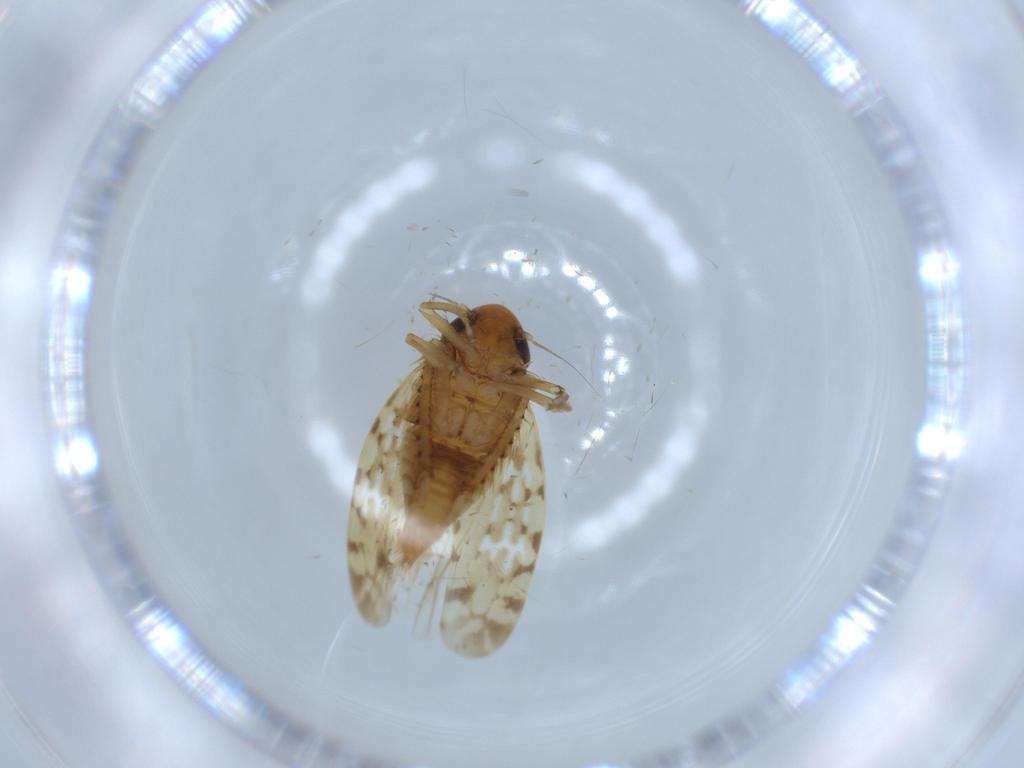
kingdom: Animalia
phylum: Arthropoda
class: Insecta
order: Hemiptera
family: Cicadellidae
